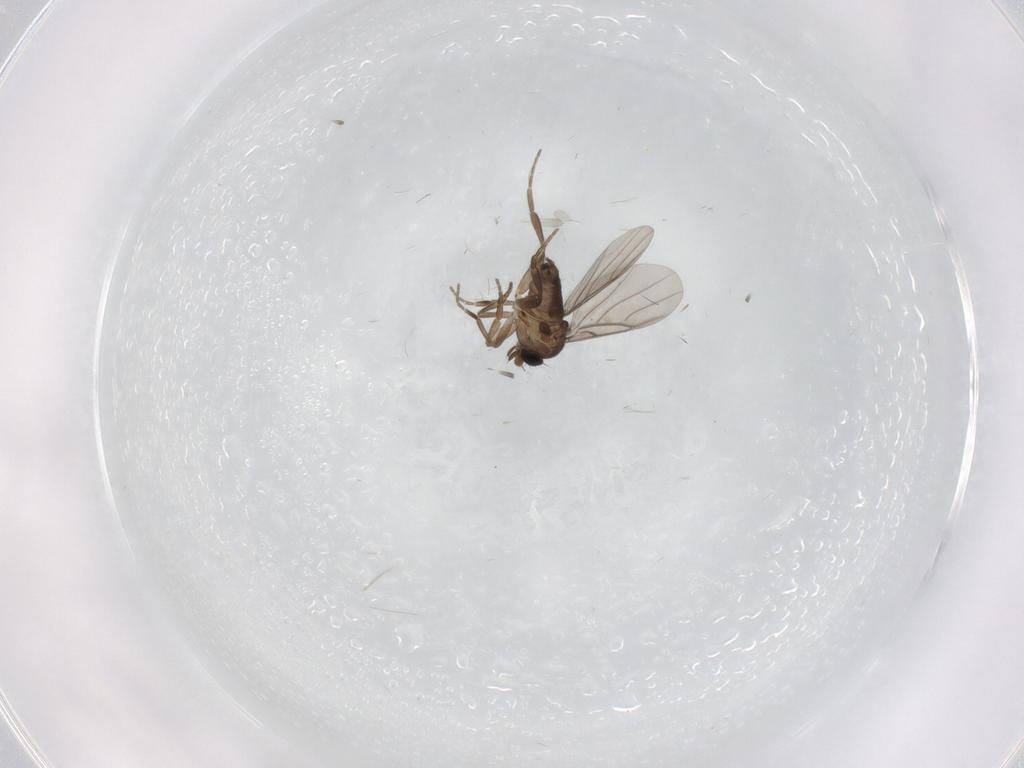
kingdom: Animalia
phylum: Arthropoda
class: Insecta
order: Diptera
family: Phoridae
